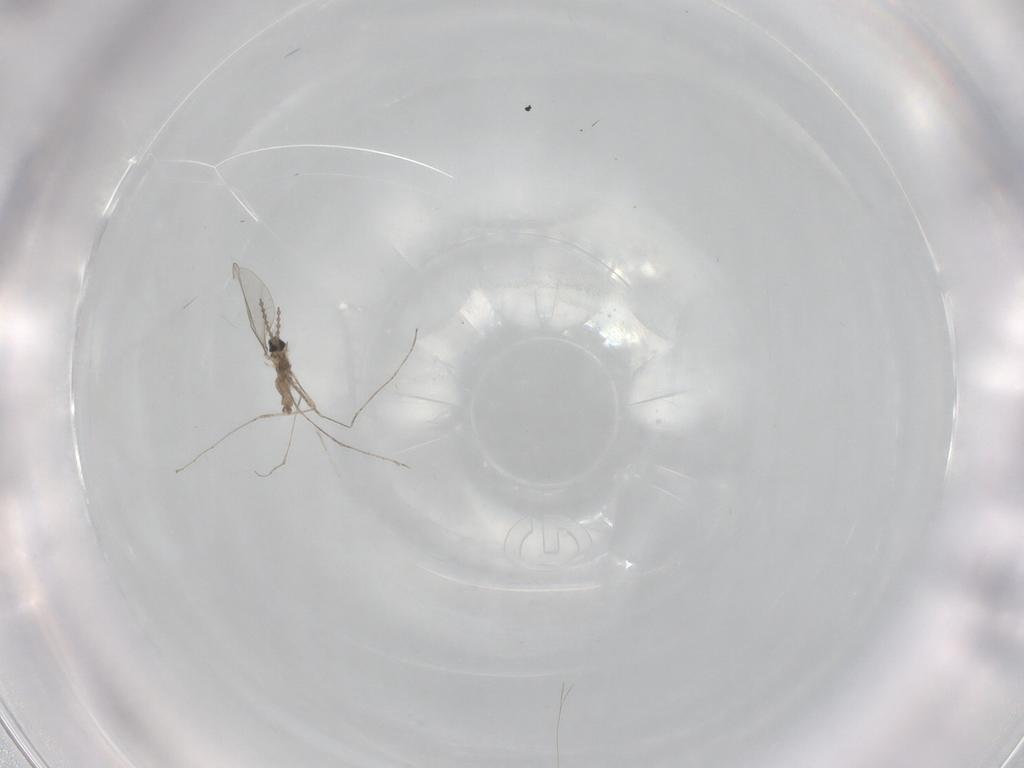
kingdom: Animalia
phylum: Arthropoda
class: Insecta
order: Diptera
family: Cecidomyiidae
